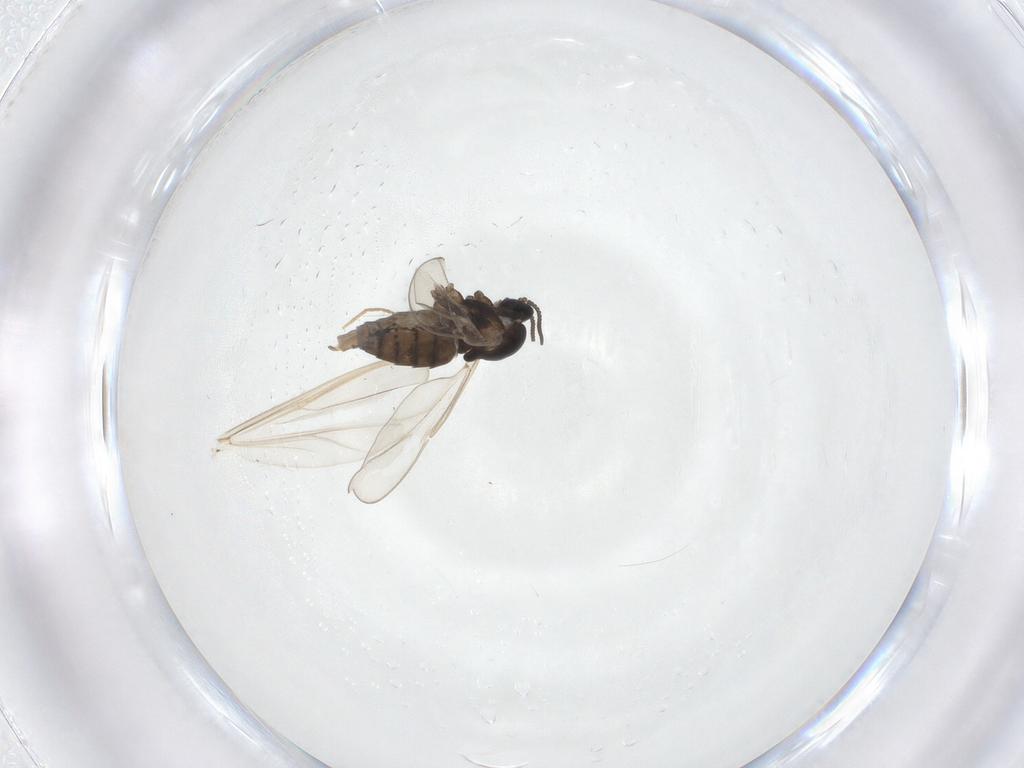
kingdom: Animalia
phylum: Arthropoda
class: Insecta
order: Diptera
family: Cecidomyiidae
